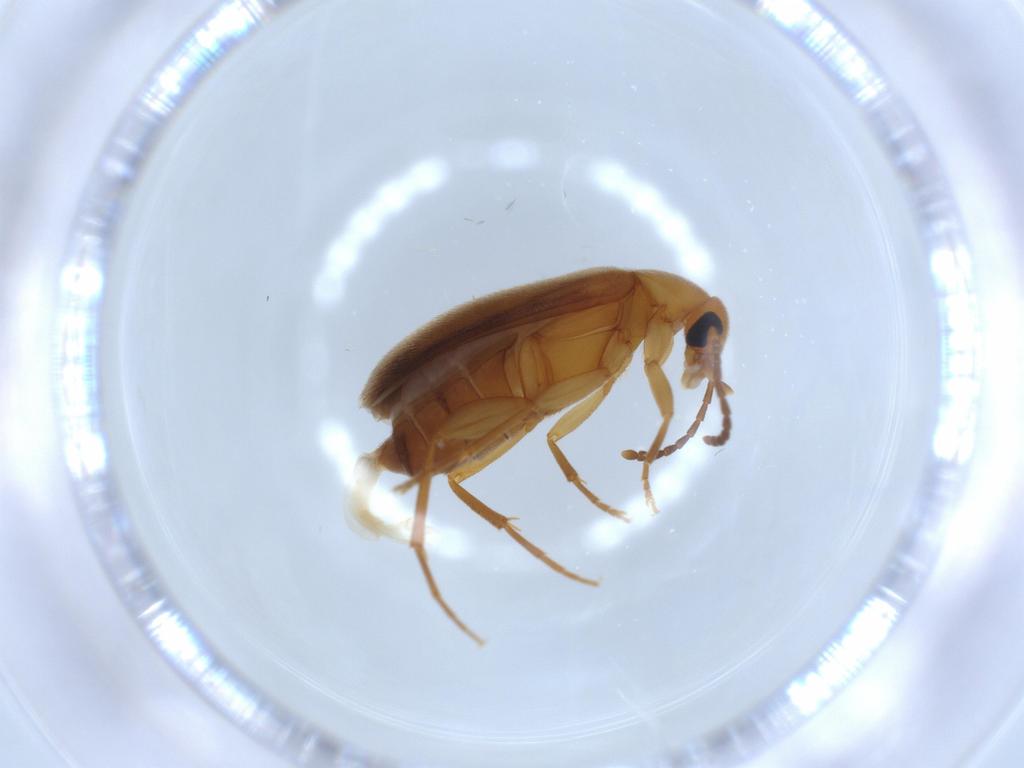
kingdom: Animalia
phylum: Arthropoda
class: Insecta
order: Coleoptera
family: Scraptiidae
